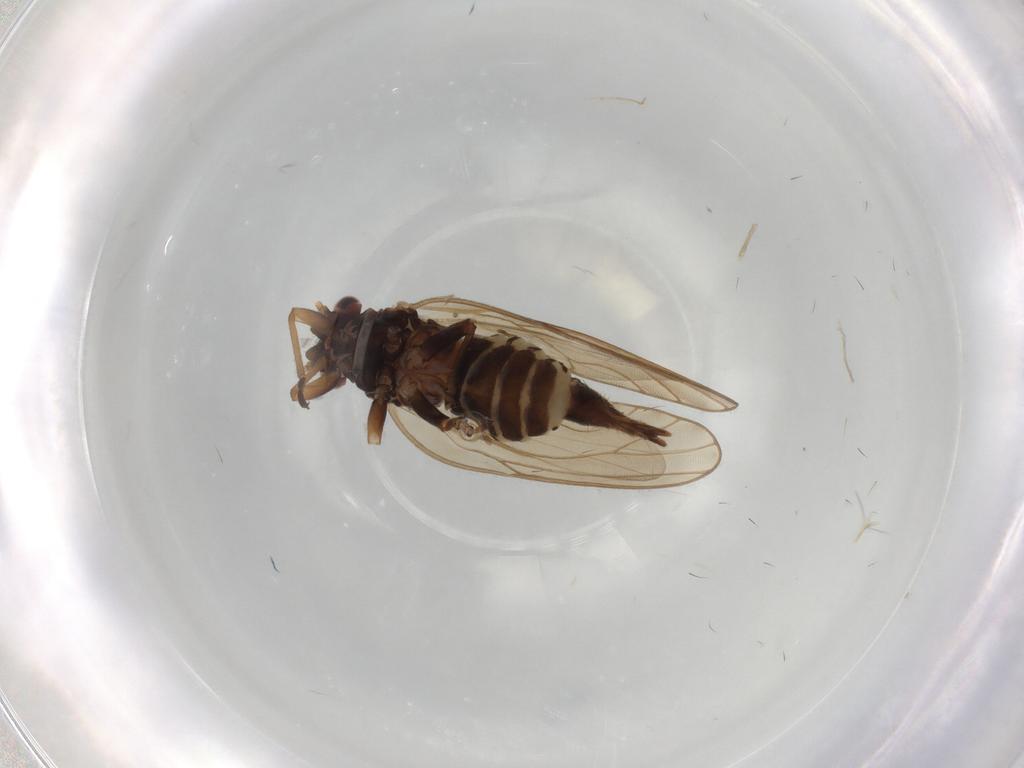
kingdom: Animalia
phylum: Arthropoda
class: Insecta
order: Hemiptera
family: Psyllidae
